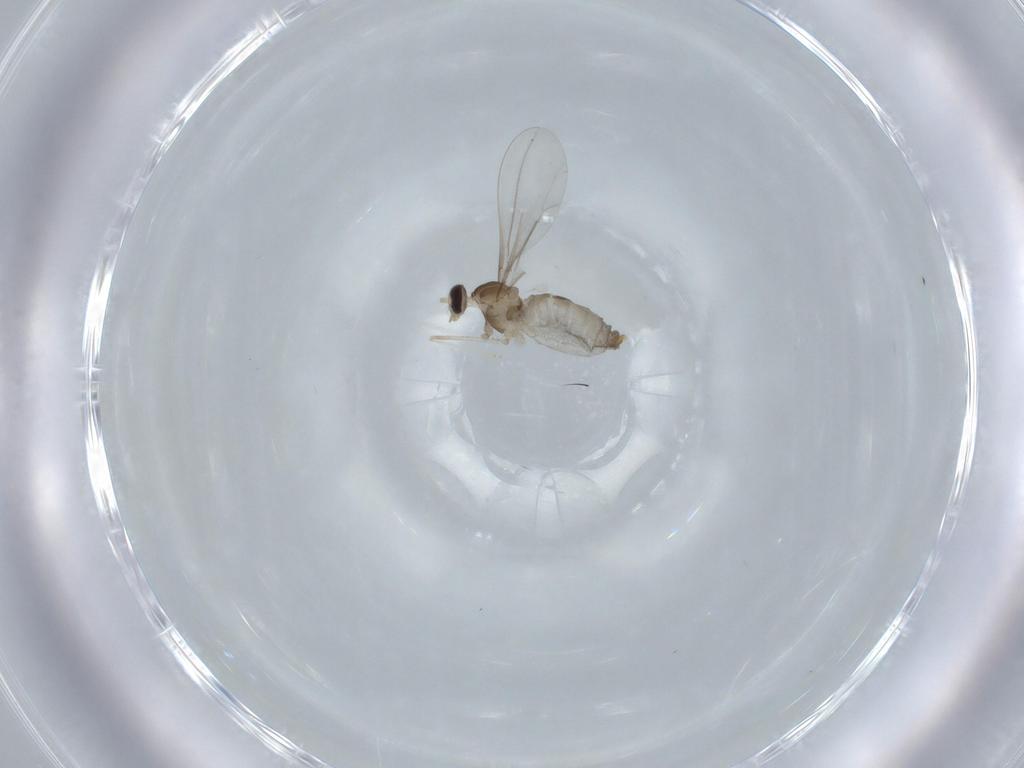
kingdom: Animalia
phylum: Arthropoda
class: Insecta
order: Diptera
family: Cecidomyiidae
